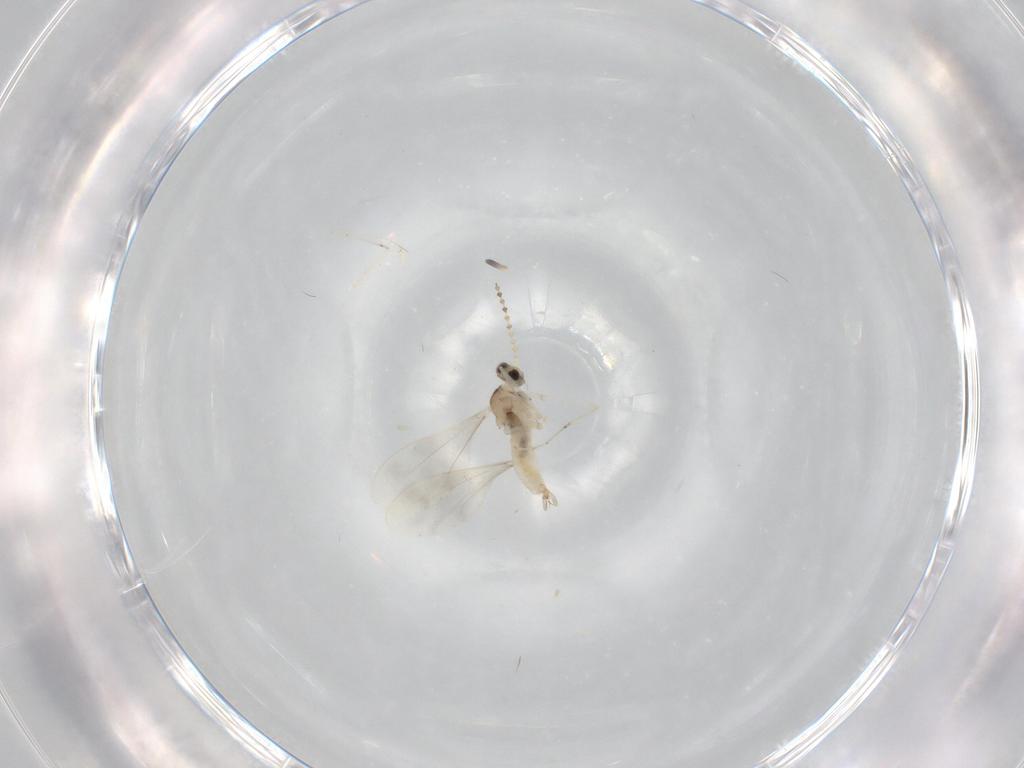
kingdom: Animalia
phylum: Arthropoda
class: Insecta
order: Diptera
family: Cecidomyiidae
